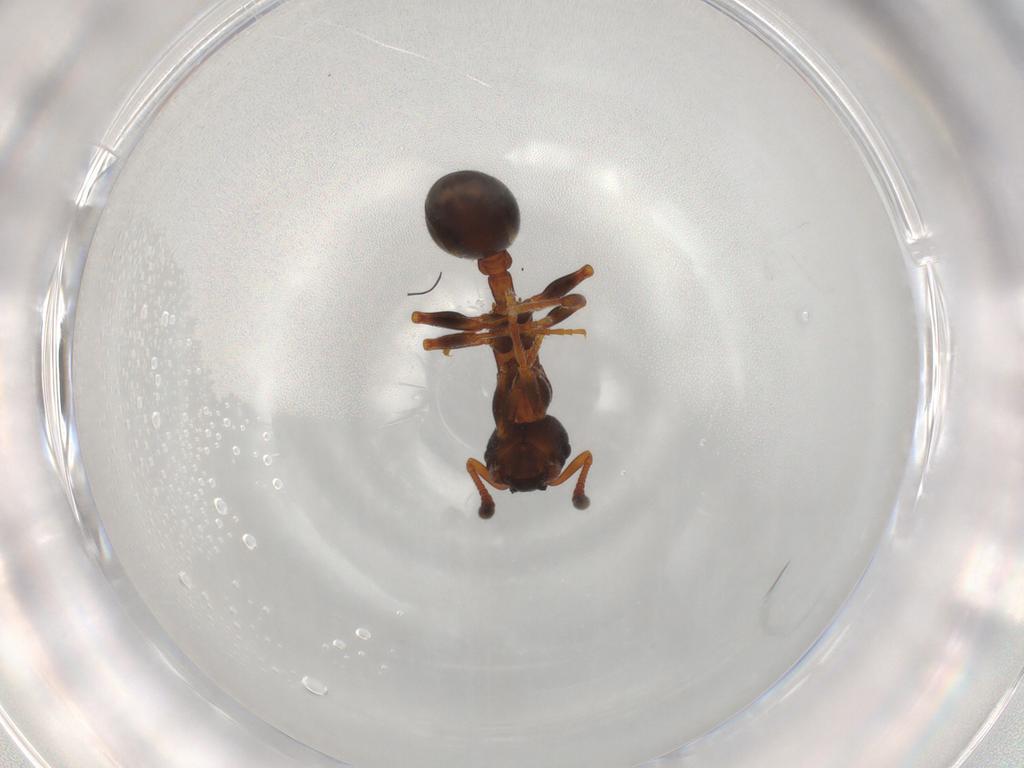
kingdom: Animalia
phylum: Arthropoda
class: Insecta
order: Hymenoptera
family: Formicidae
